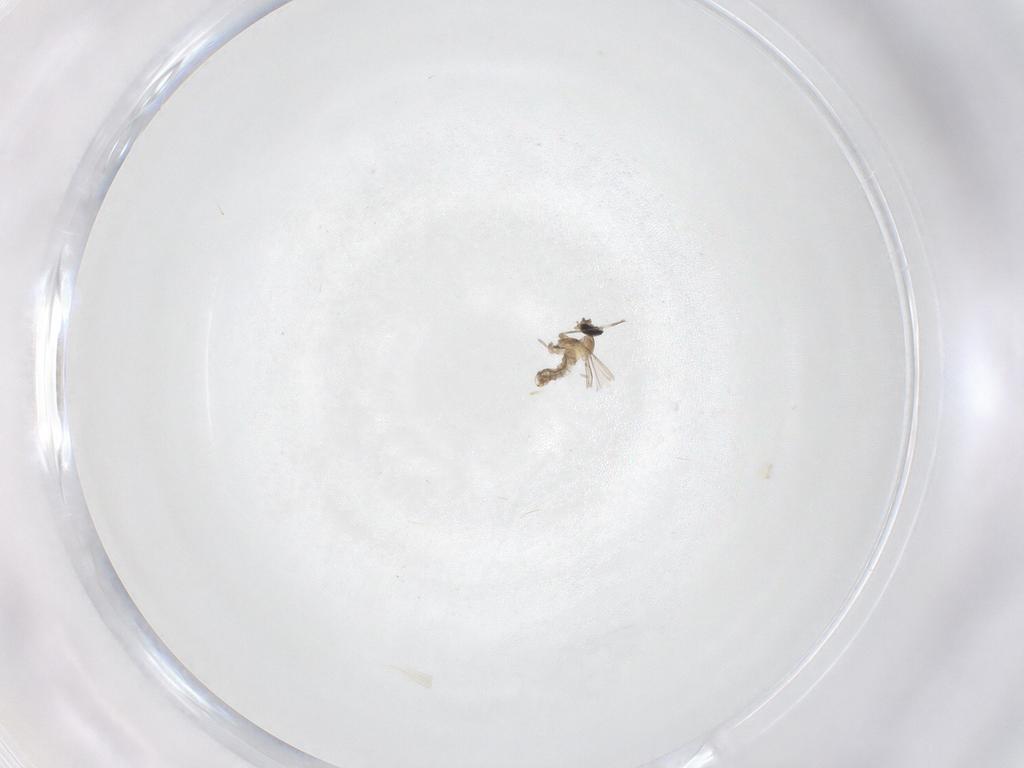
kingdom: Animalia
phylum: Arthropoda
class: Insecta
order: Diptera
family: Cecidomyiidae
